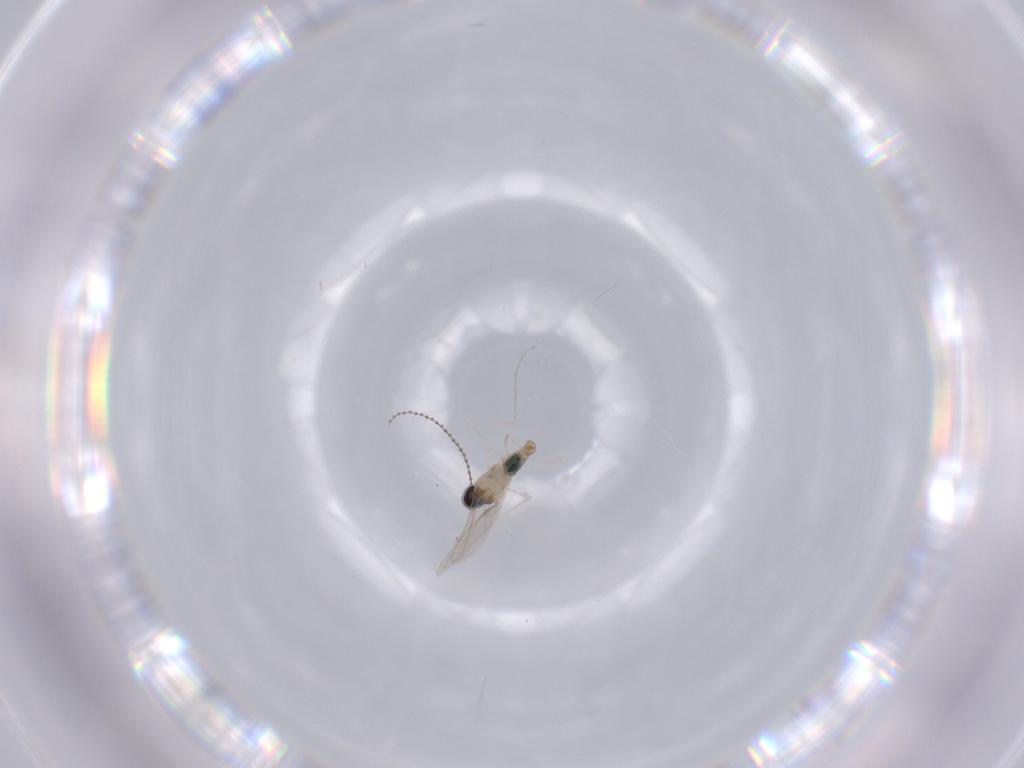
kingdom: Animalia
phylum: Arthropoda
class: Insecta
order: Diptera
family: Cecidomyiidae
